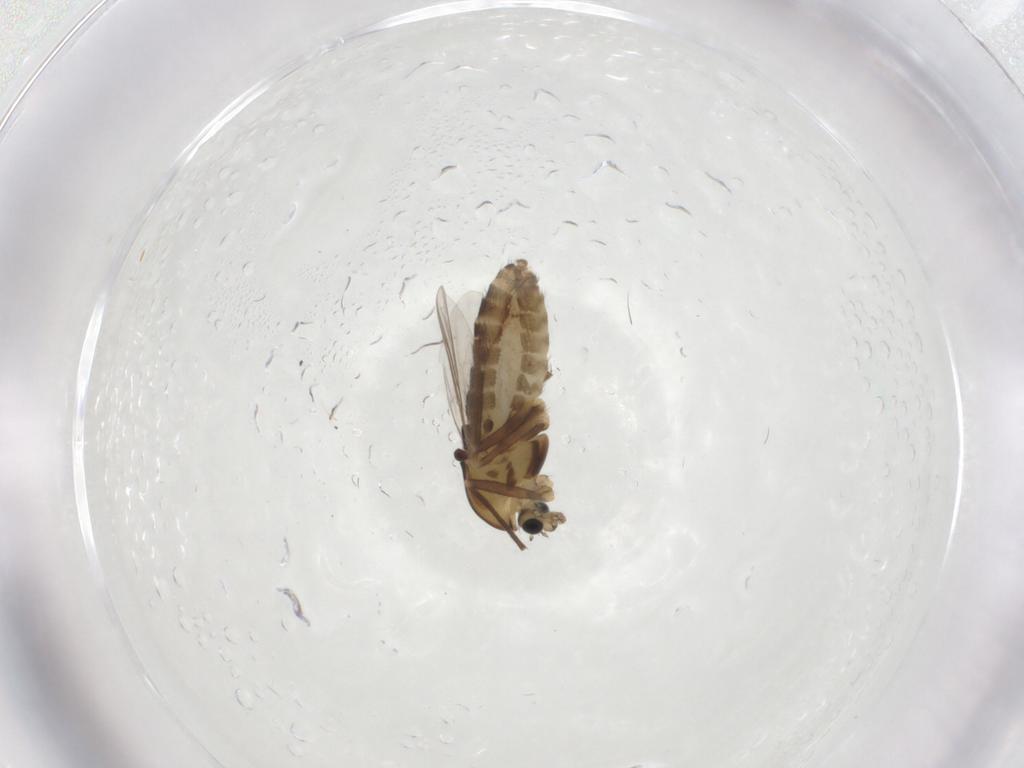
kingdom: Animalia
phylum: Arthropoda
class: Insecta
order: Diptera
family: Chironomidae
